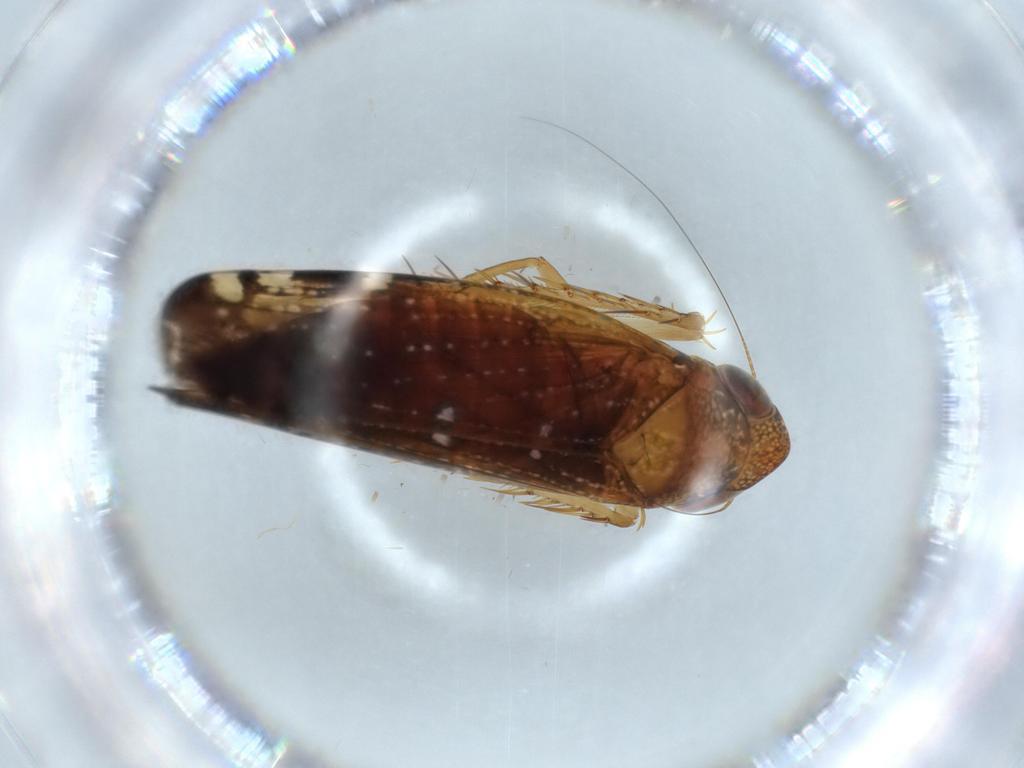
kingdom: Animalia
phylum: Arthropoda
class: Insecta
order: Hemiptera
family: Cicadellidae
